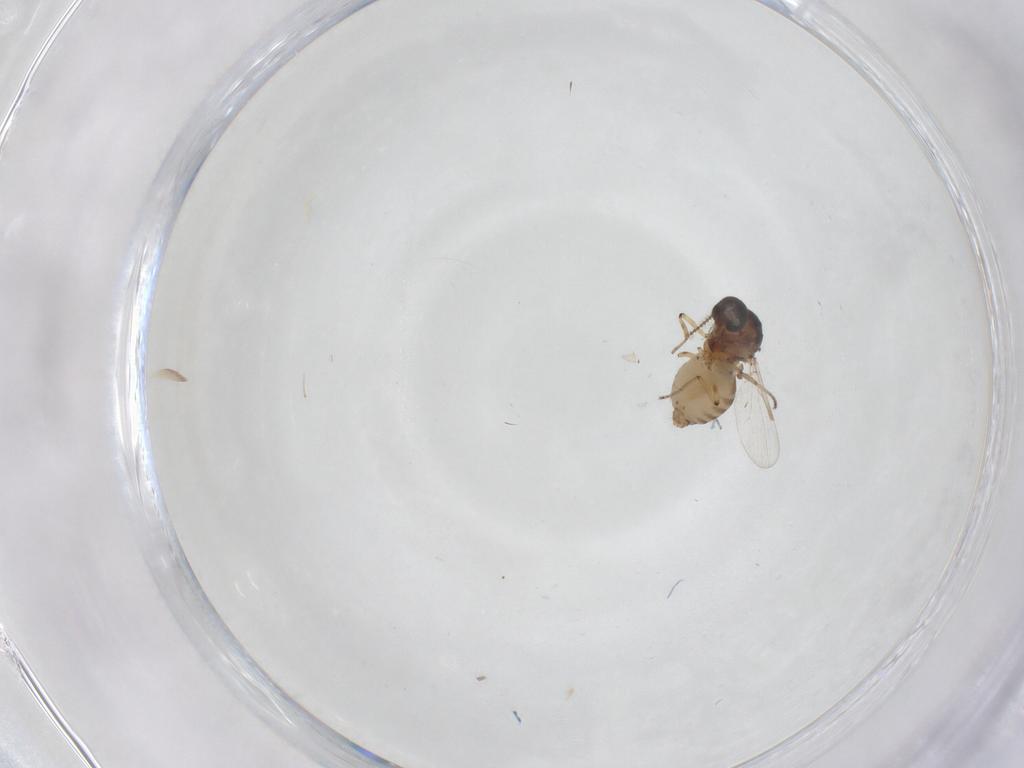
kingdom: Animalia
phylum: Arthropoda
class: Insecta
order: Diptera
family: Ceratopogonidae
